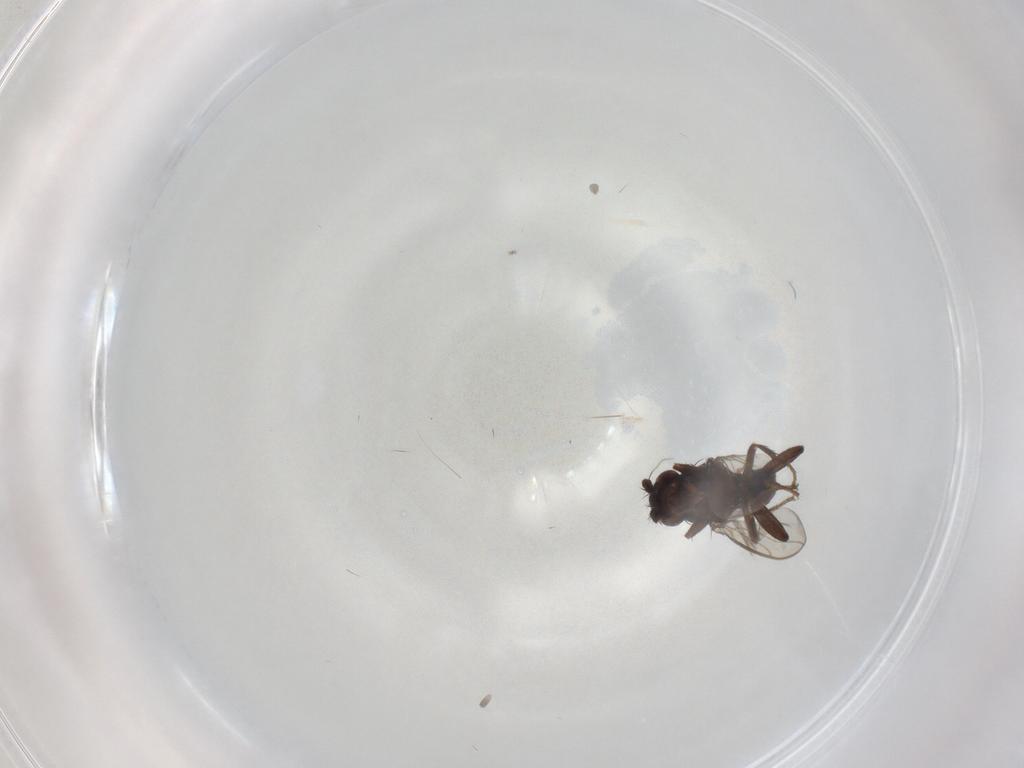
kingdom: Animalia
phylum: Arthropoda
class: Insecta
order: Diptera
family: Sphaeroceridae
